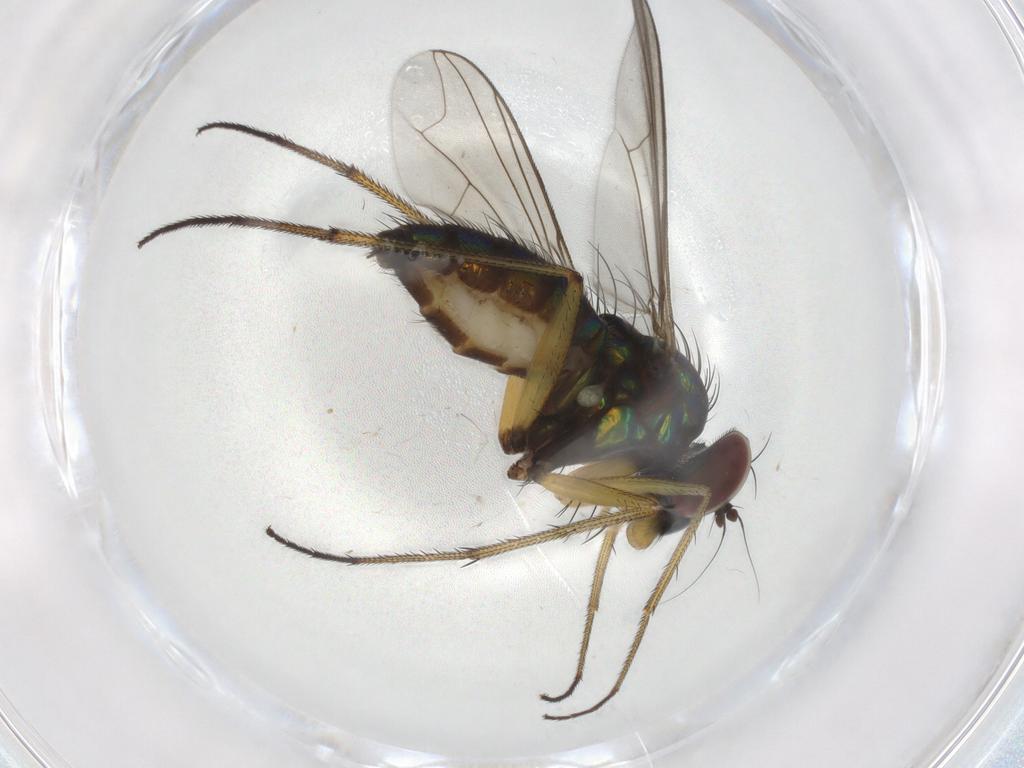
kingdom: Animalia
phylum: Arthropoda
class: Insecta
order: Diptera
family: Dolichopodidae
